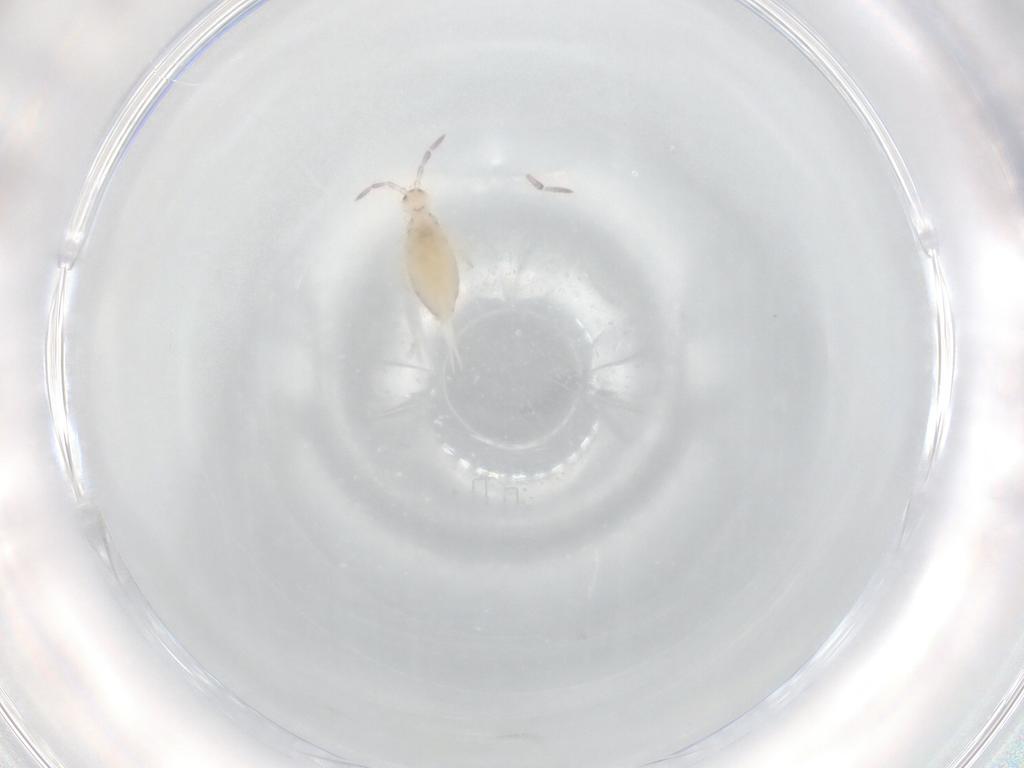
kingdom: Animalia
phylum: Arthropoda
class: Collembola
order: Entomobryomorpha
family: Entomobryidae
